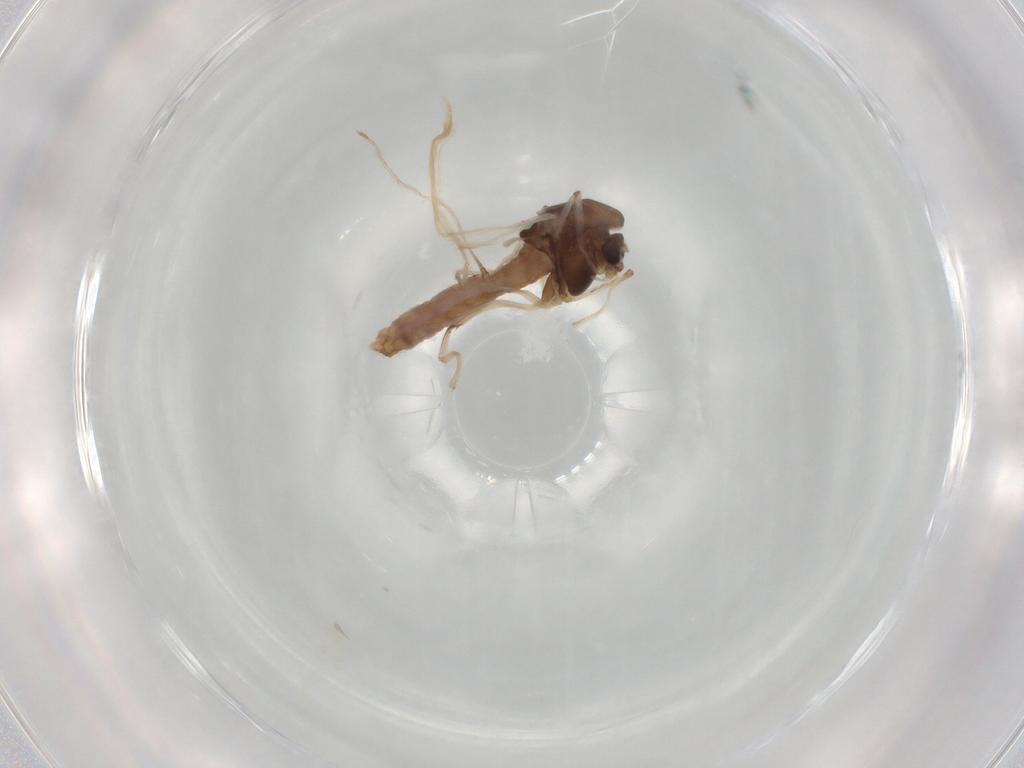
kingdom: Animalia
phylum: Arthropoda
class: Insecta
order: Diptera
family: Chironomidae
